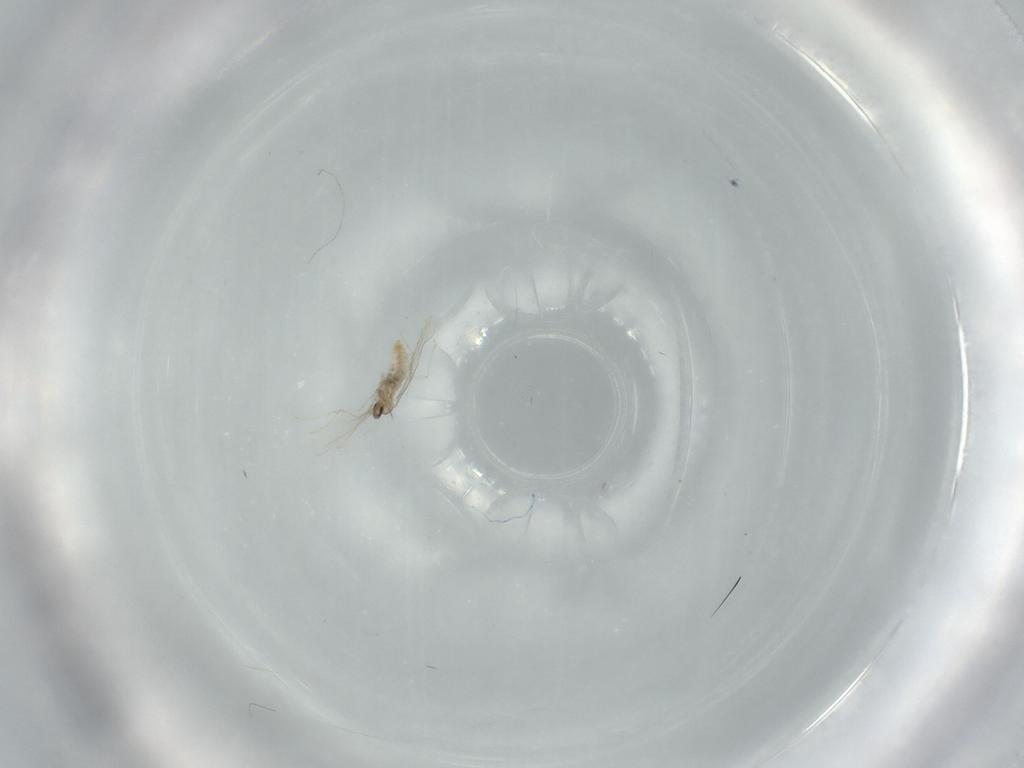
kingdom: Animalia
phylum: Arthropoda
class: Insecta
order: Diptera
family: Cecidomyiidae
